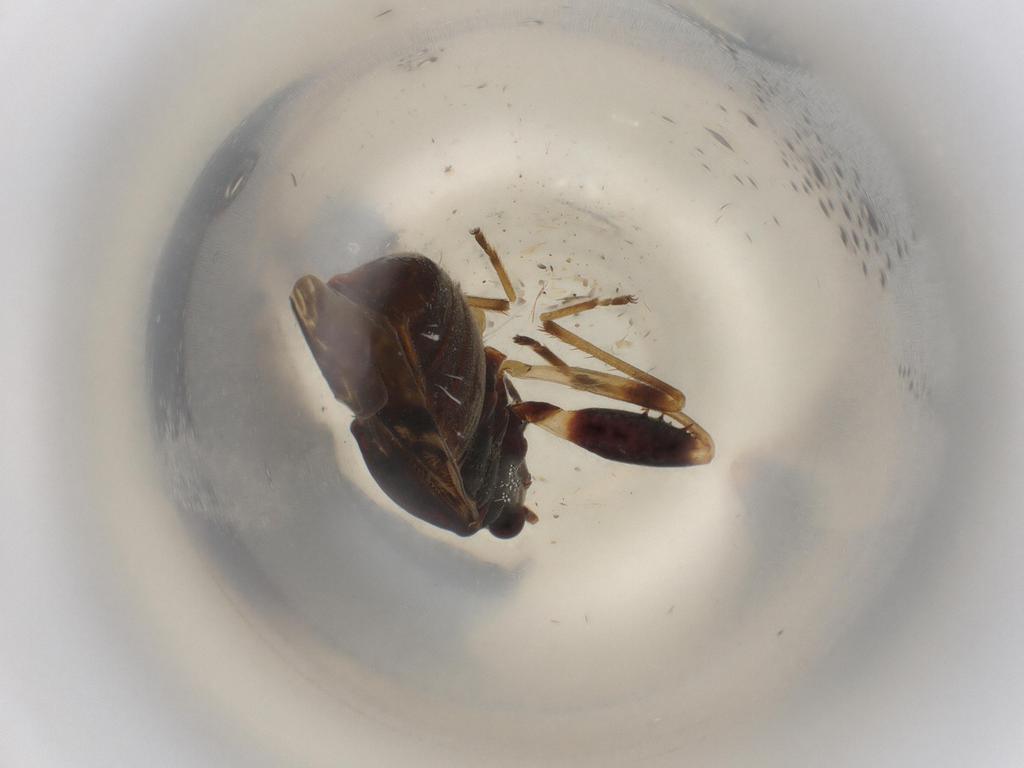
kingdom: Animalia
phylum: Arthropoda
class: Insecta
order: Hemiptera
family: Rhyparochromidae
